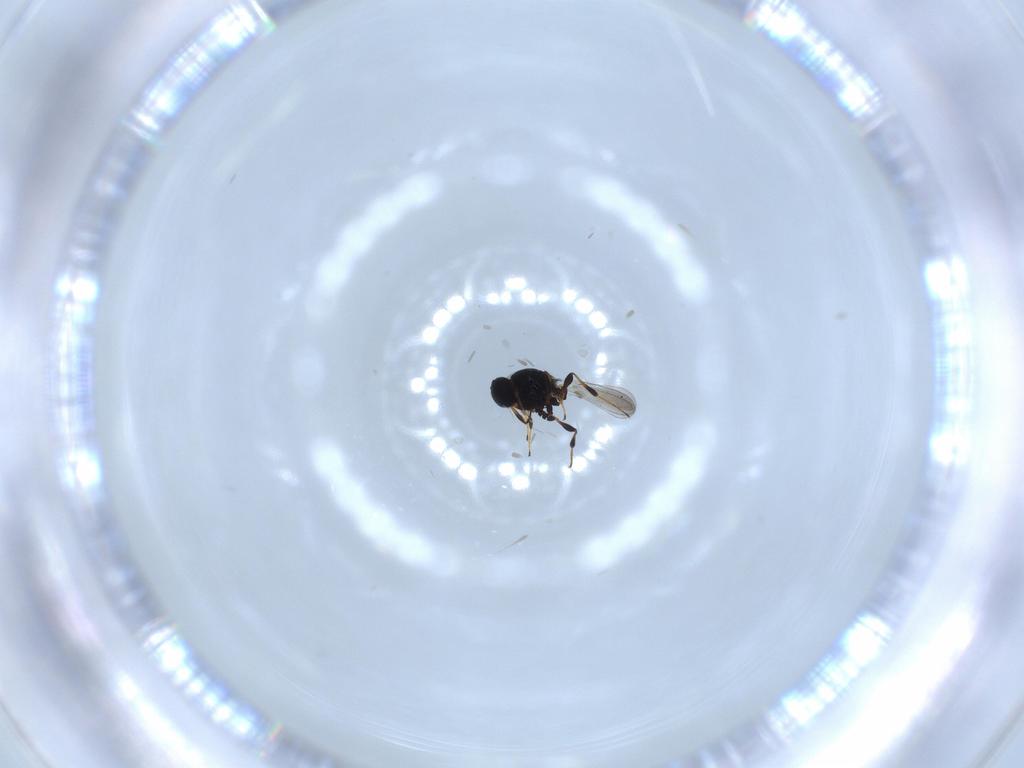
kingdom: Animalia
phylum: Arthropoda
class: Insecta
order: Hymenoptera
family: Platygastridae
